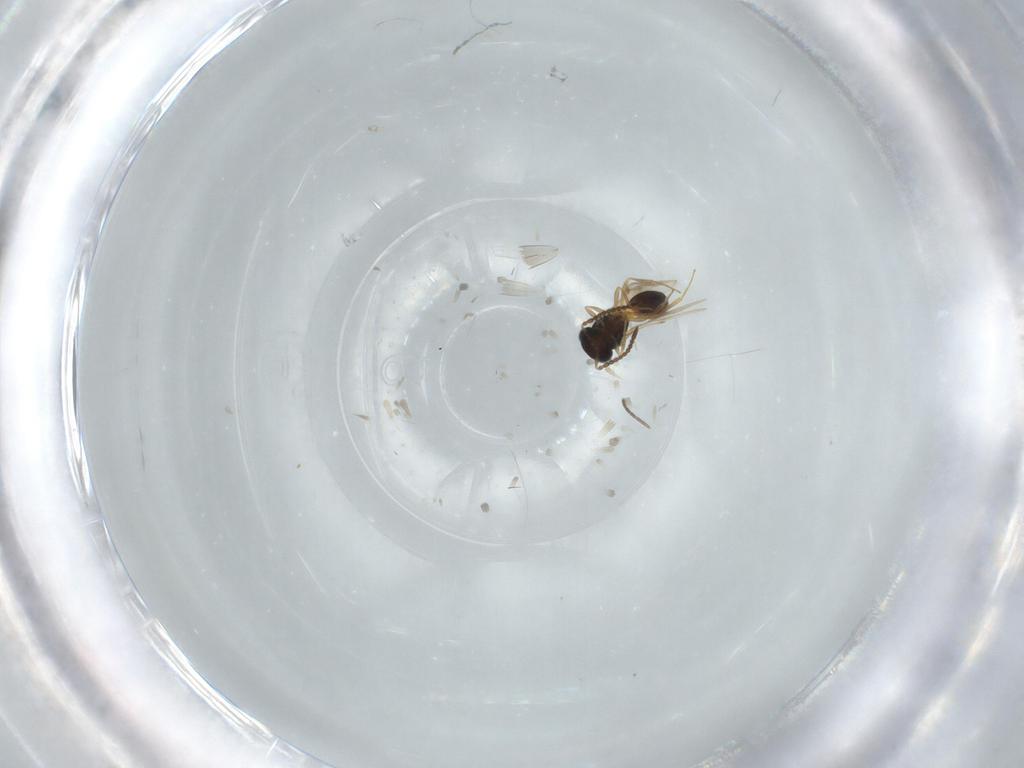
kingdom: Animalia
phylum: Arthropoda
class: Insecta
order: Hymenoptera
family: Scelionidae
